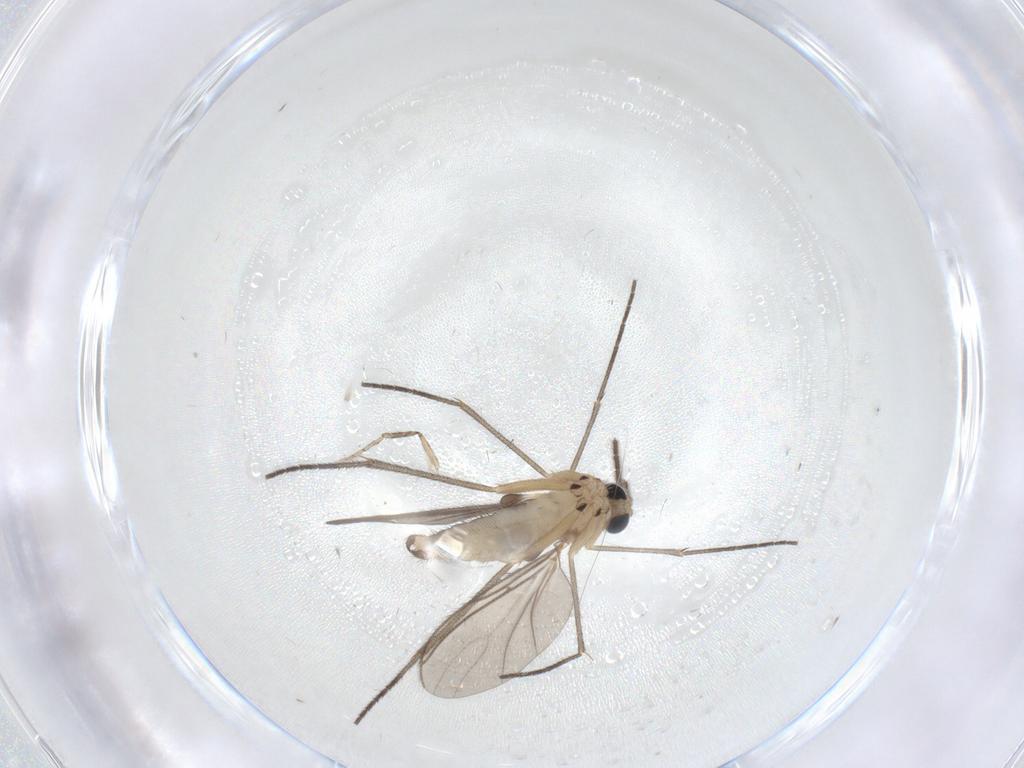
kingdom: Animalia
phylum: Arthropoda
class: Insecta
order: Diptera
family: Sciaridae
